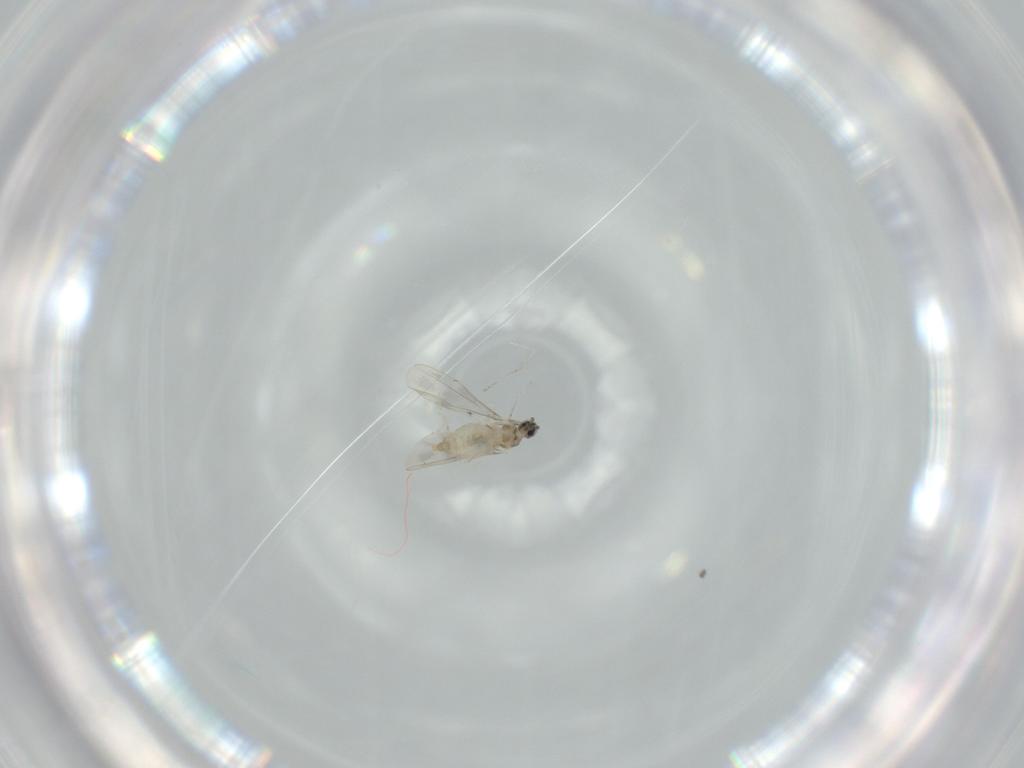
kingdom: Animalia
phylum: Arthropoda
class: Insecta
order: Diptera
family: Cecidomyiidae
